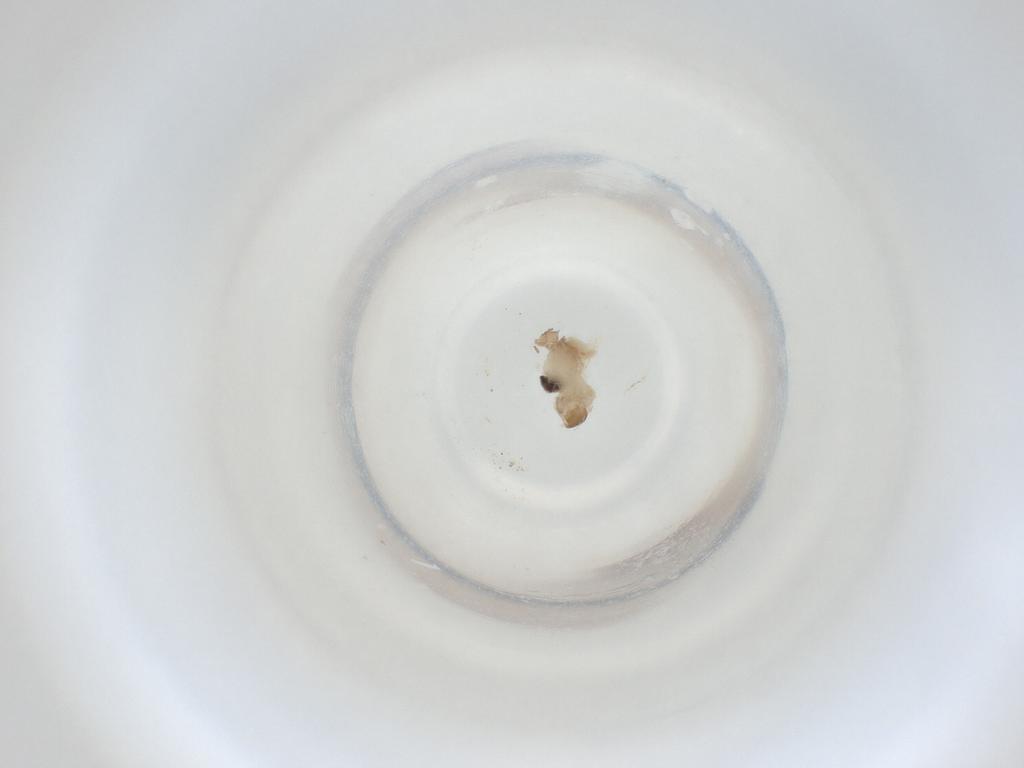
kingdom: Animalia
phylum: Arthropoda
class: Insecta
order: Diptera
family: Cecidomyiidae
